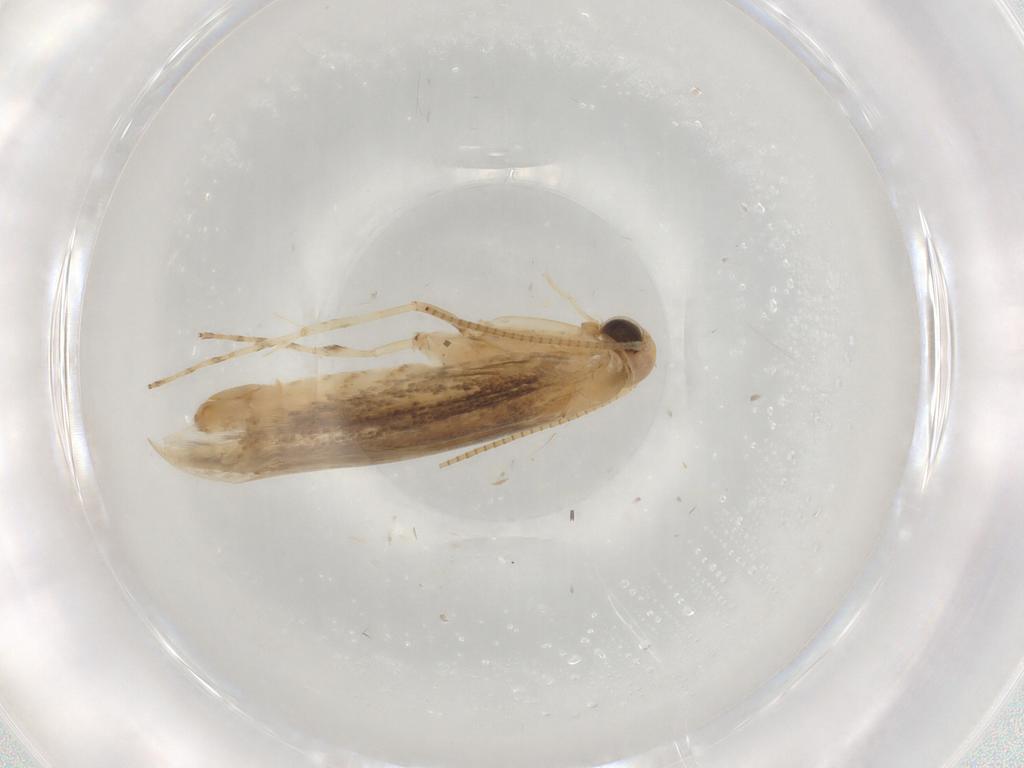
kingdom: Animalia
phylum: Arthropoda
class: Insecta
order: Lepidoptera
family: Nepticulidae
